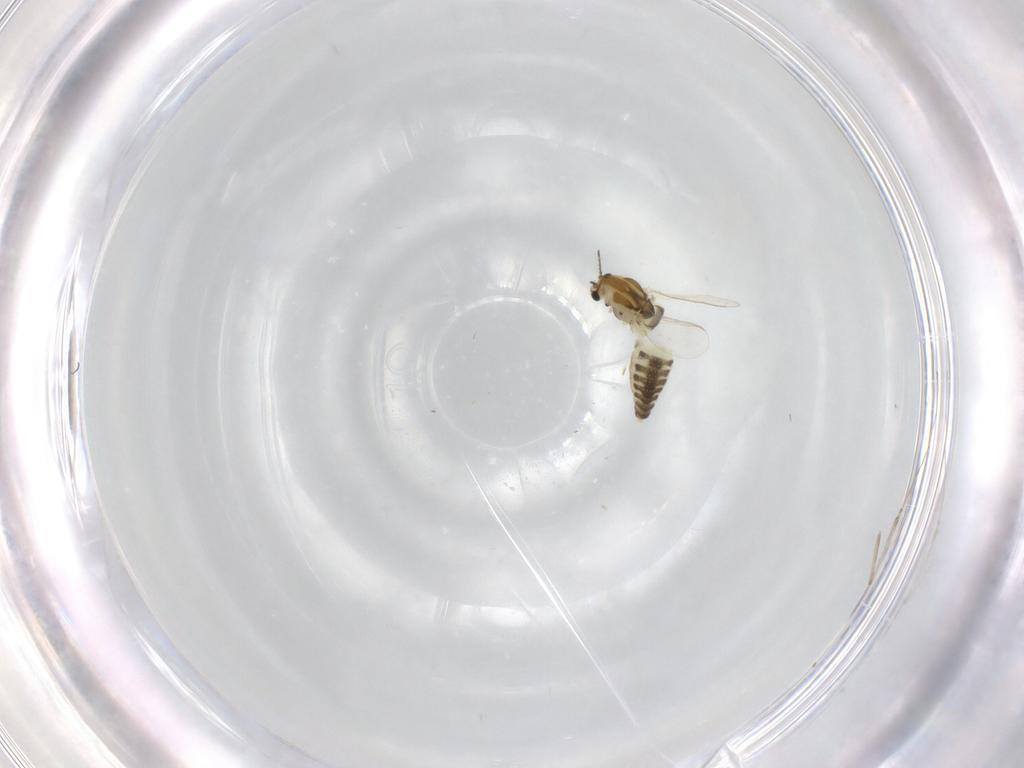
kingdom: Animalia
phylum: Arthropoda
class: Insecta
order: Diptera
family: Chironomidae
